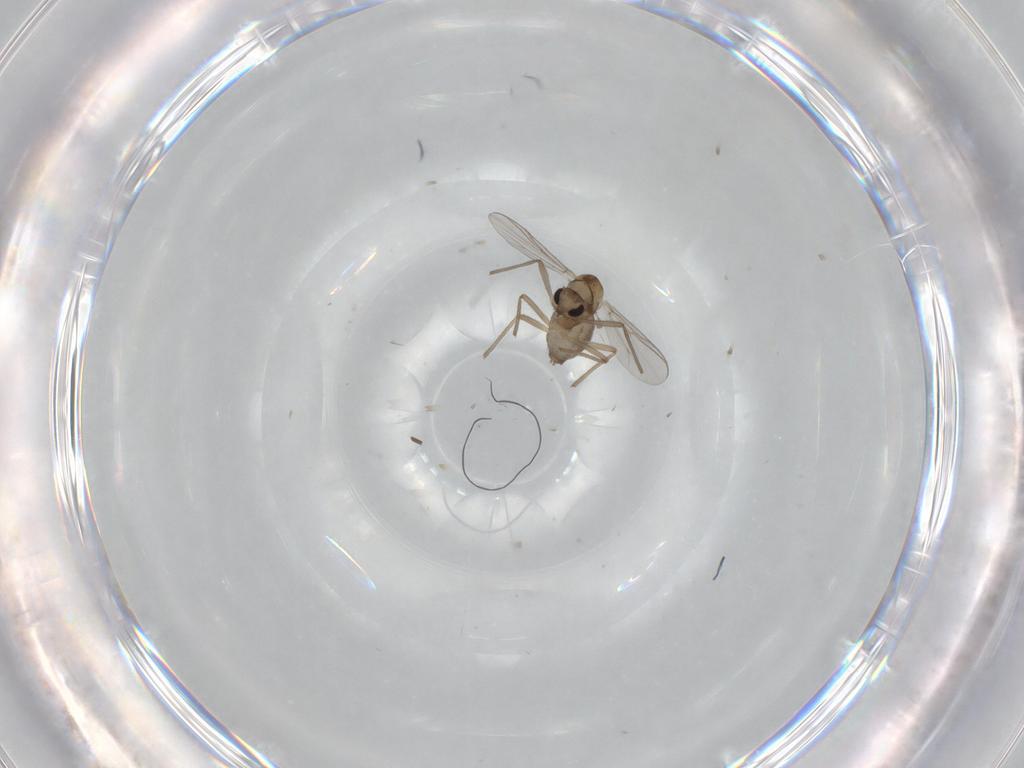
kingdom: Animalia
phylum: Arthropoda
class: Insecta
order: Diptera
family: Chironomidae
